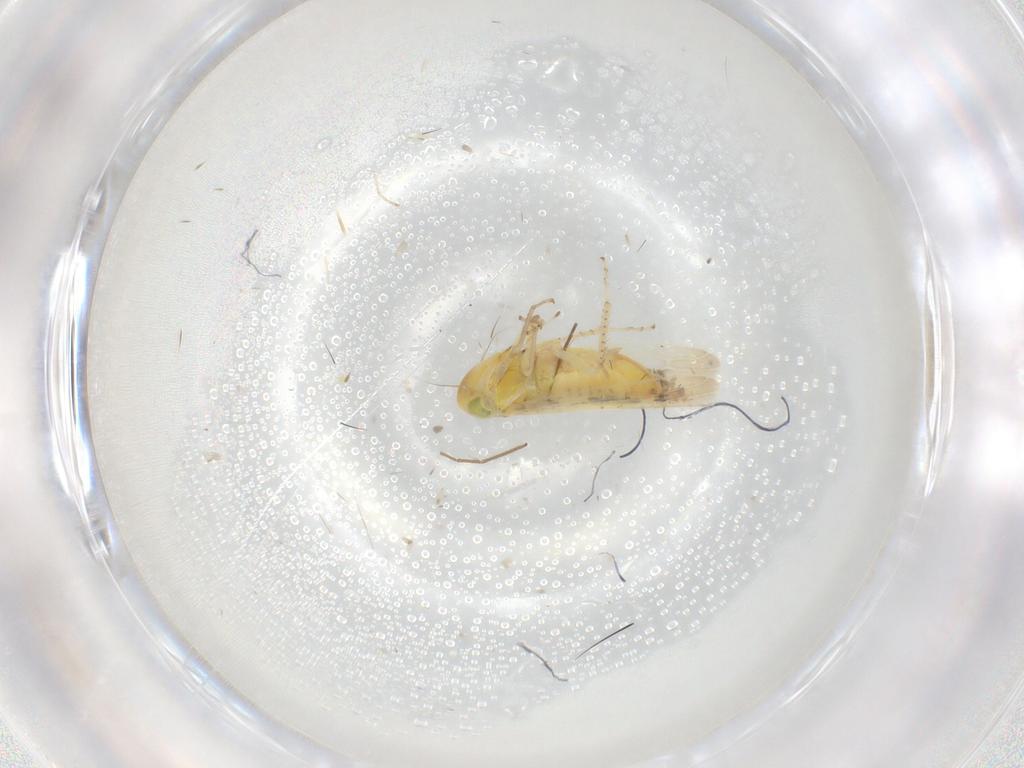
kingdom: Animalia
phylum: Arthropoda
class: Insecta
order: Hemiptera
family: Cicadellidae
